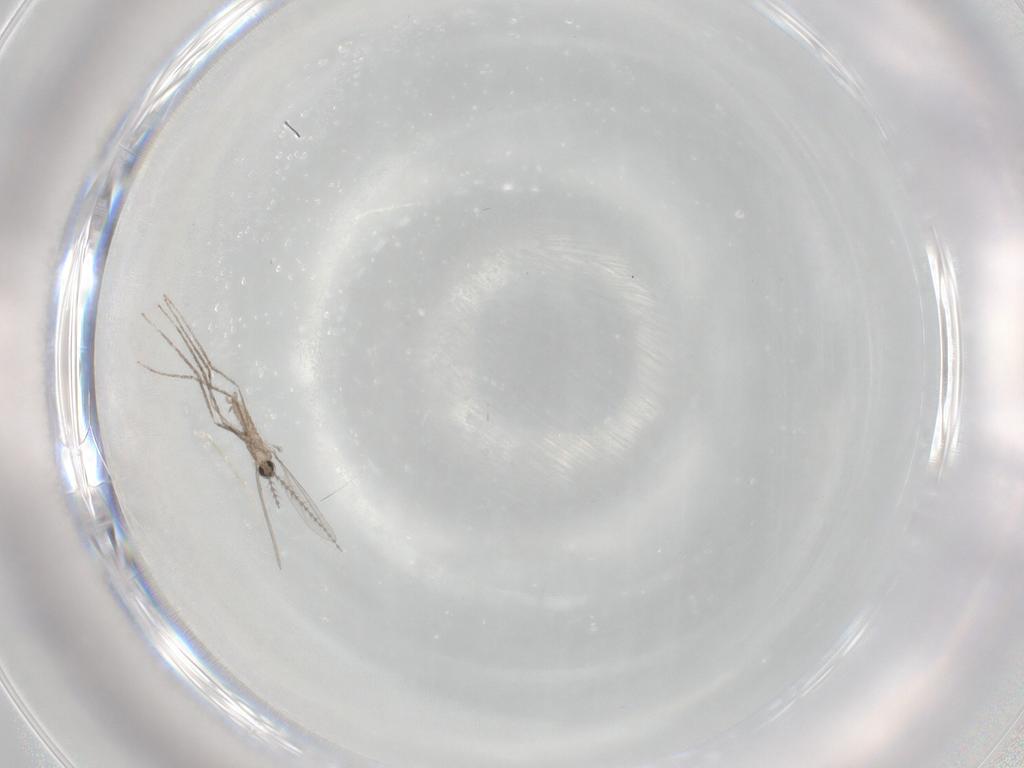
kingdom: Animalia
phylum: Arthropoda
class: Insecta
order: Diptera
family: Cecidomyiidae
